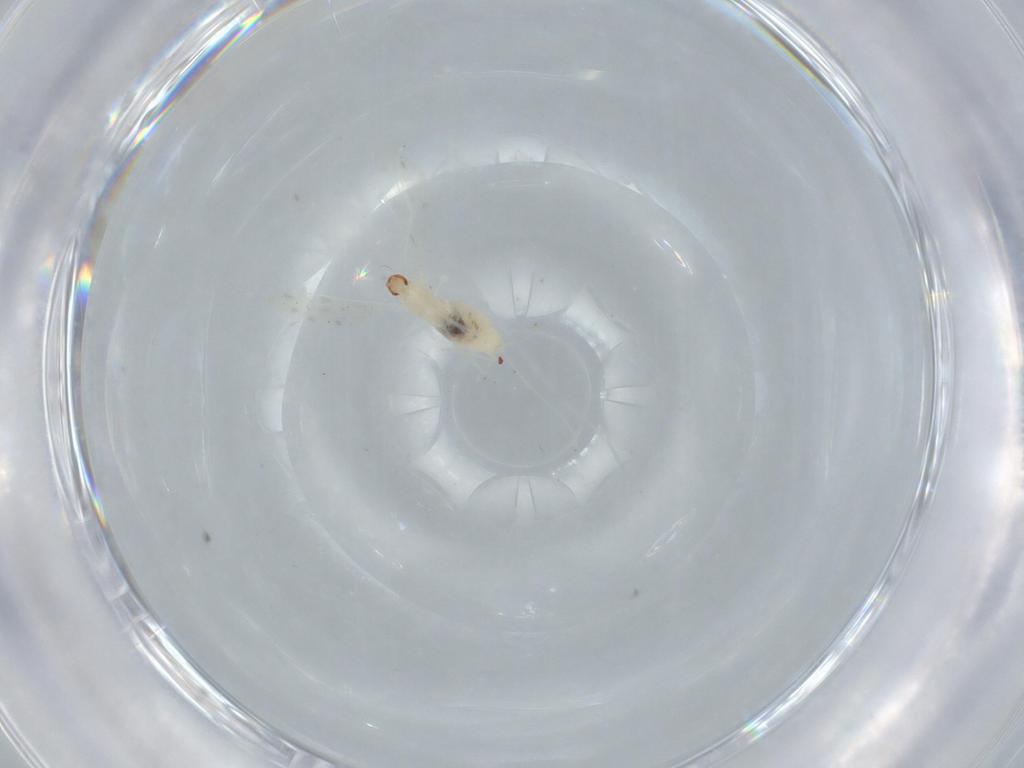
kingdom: Animalia
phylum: Arthropoda
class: Insecta
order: Diptera
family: Cecidomyiidae
